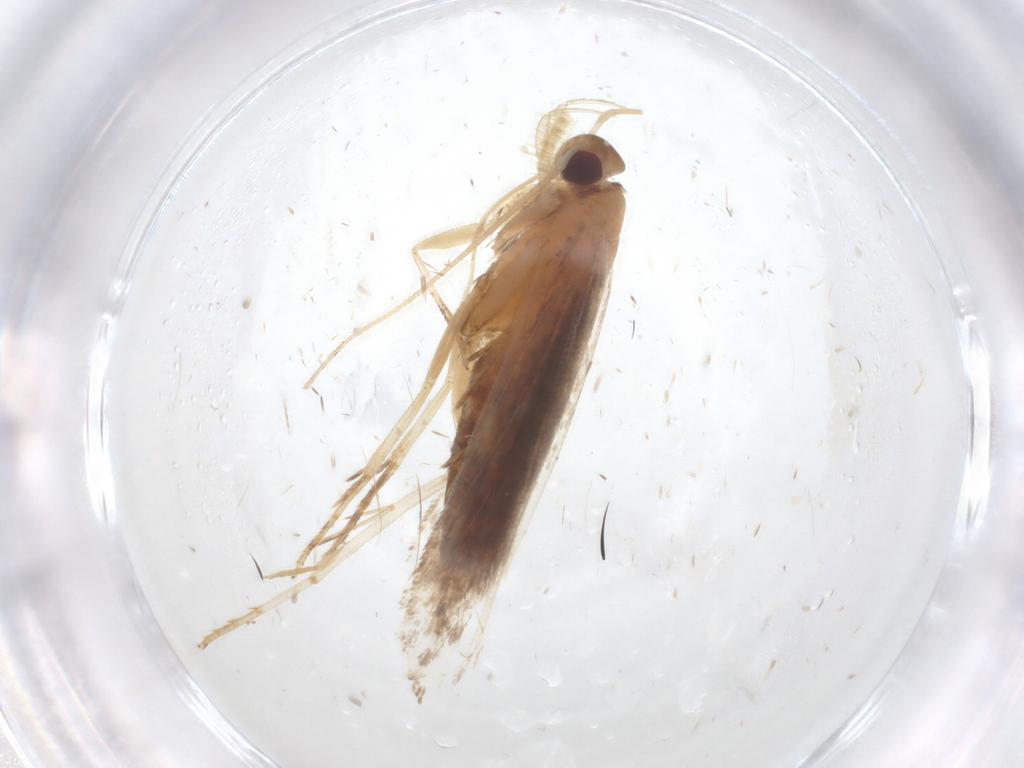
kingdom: Animalia
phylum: Arthropoda
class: Insecta
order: Lepidoptera
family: Gelechiidae
